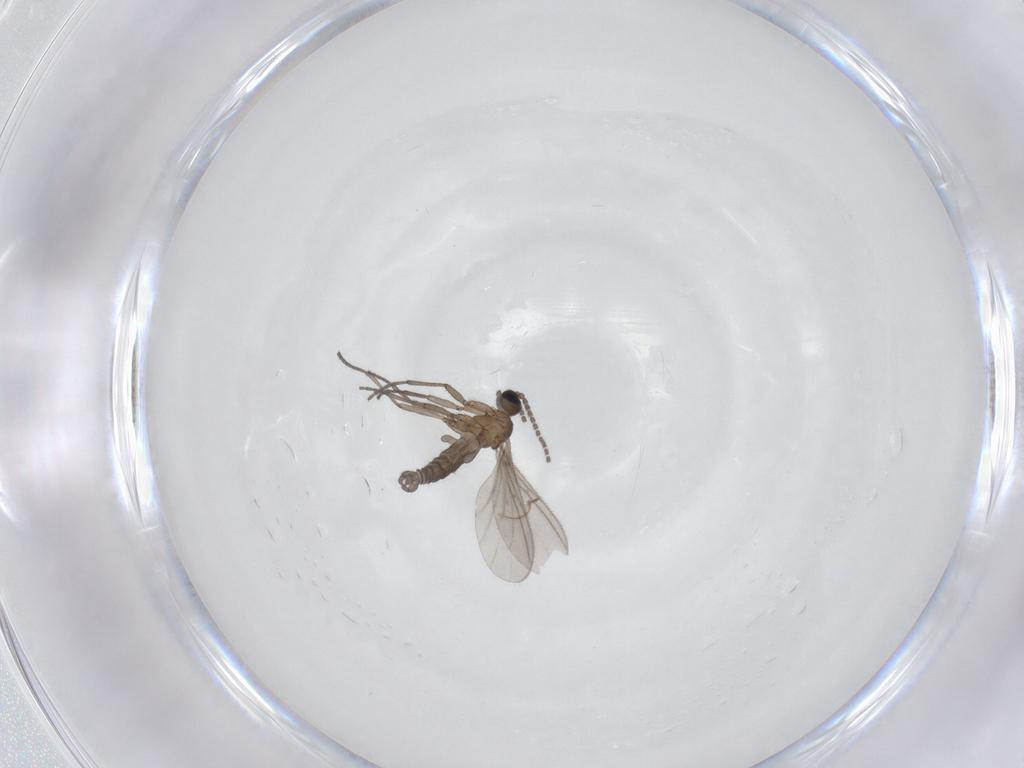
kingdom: Animalia
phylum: Arthropoda
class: Insecta
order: Diptera
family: Sciaridae
